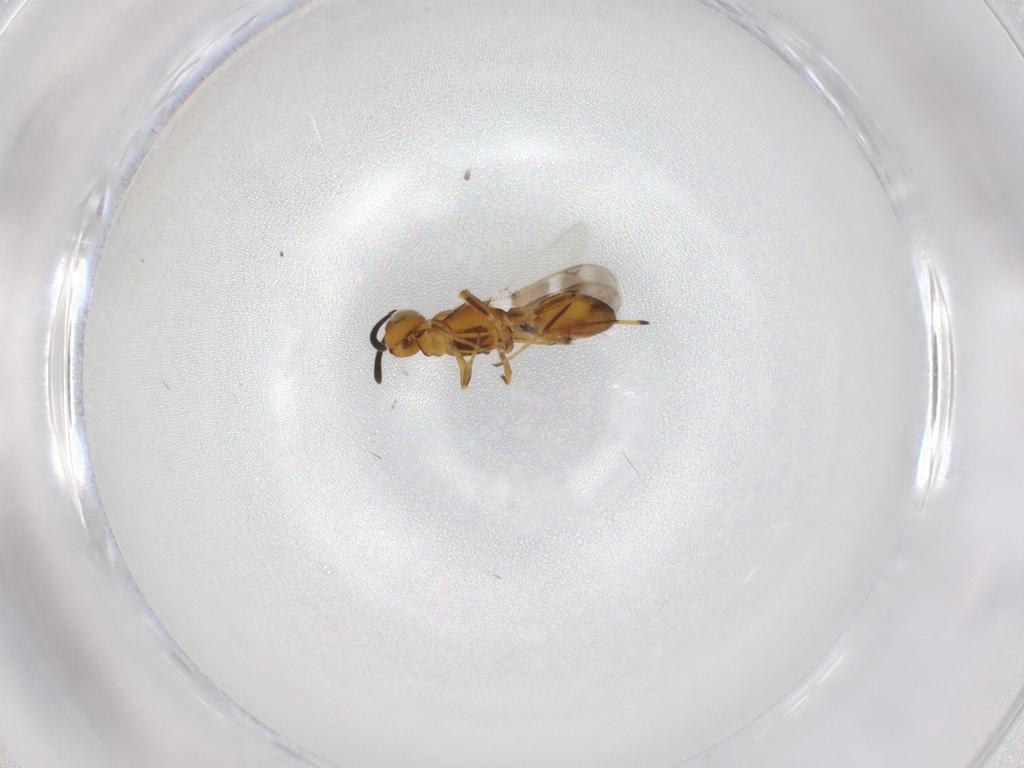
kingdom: Animalia
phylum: Arthropoda
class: Insecta
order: Hymenoptera
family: Eupelmidae
